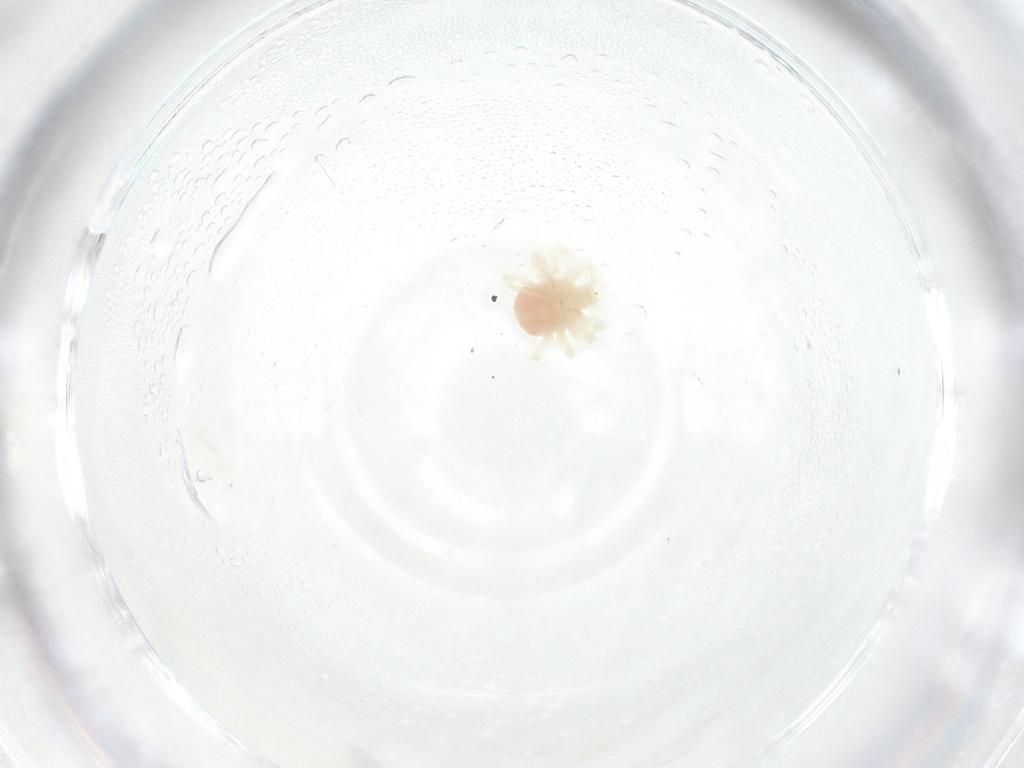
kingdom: Animalia
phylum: Arthropoda
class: Arachnida
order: Trombidiformes
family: Anystidae
